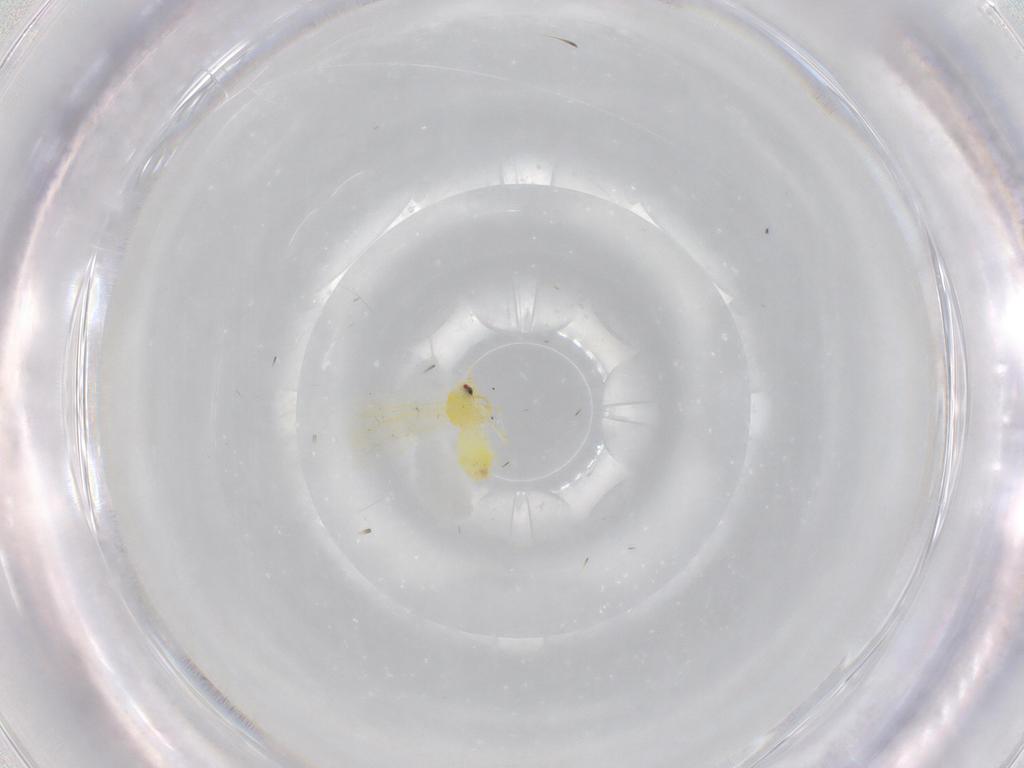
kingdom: Animalia
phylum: Arthropoda
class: Insecta
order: Hemiptera
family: Aleyrodidae
